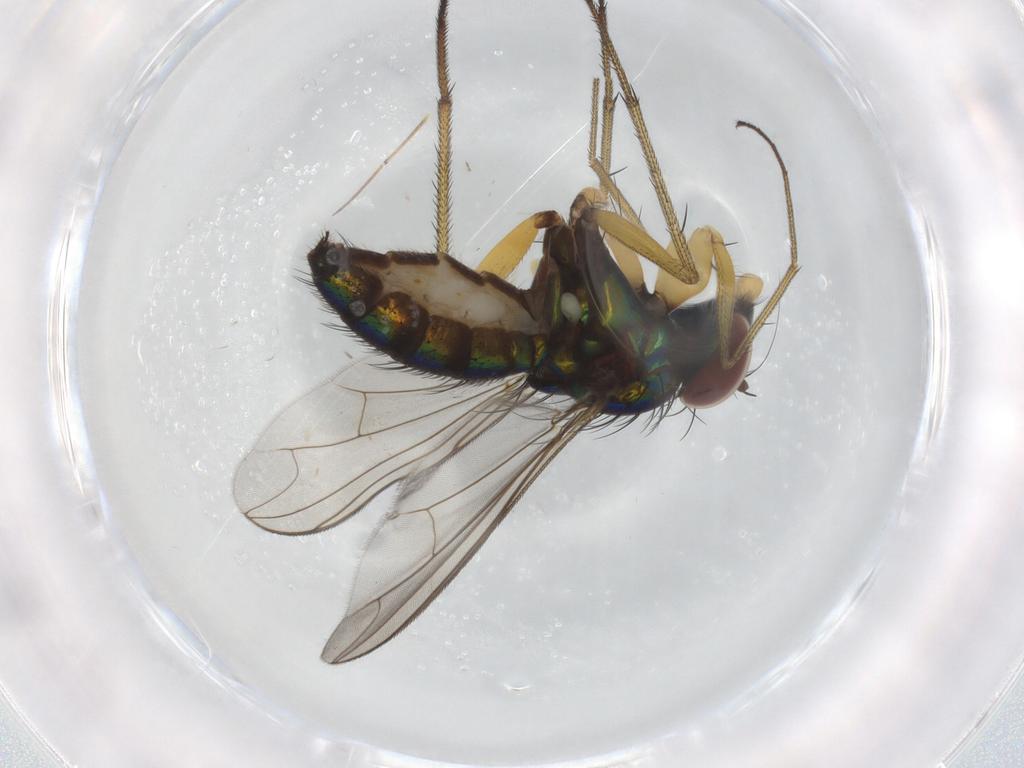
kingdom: Animalia
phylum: Arthropoda
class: Insecta
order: Diptera
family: Dolichopodidae
